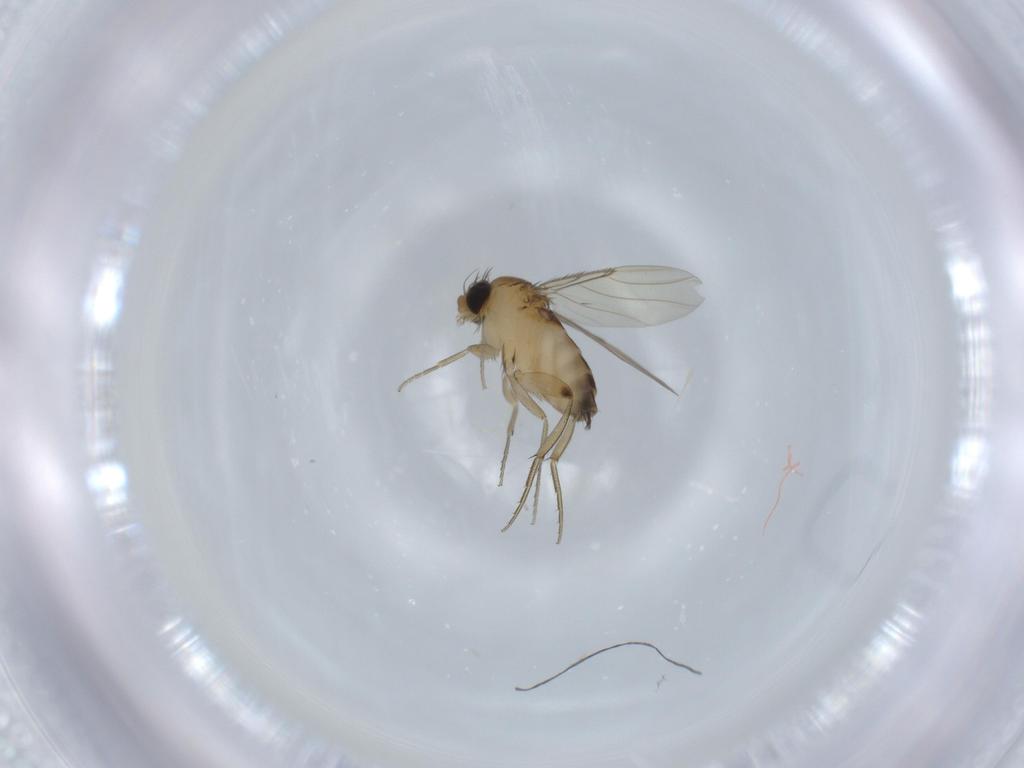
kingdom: Animalia
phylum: Arthropoda
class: Insecta
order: Diptera
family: Phoridae
